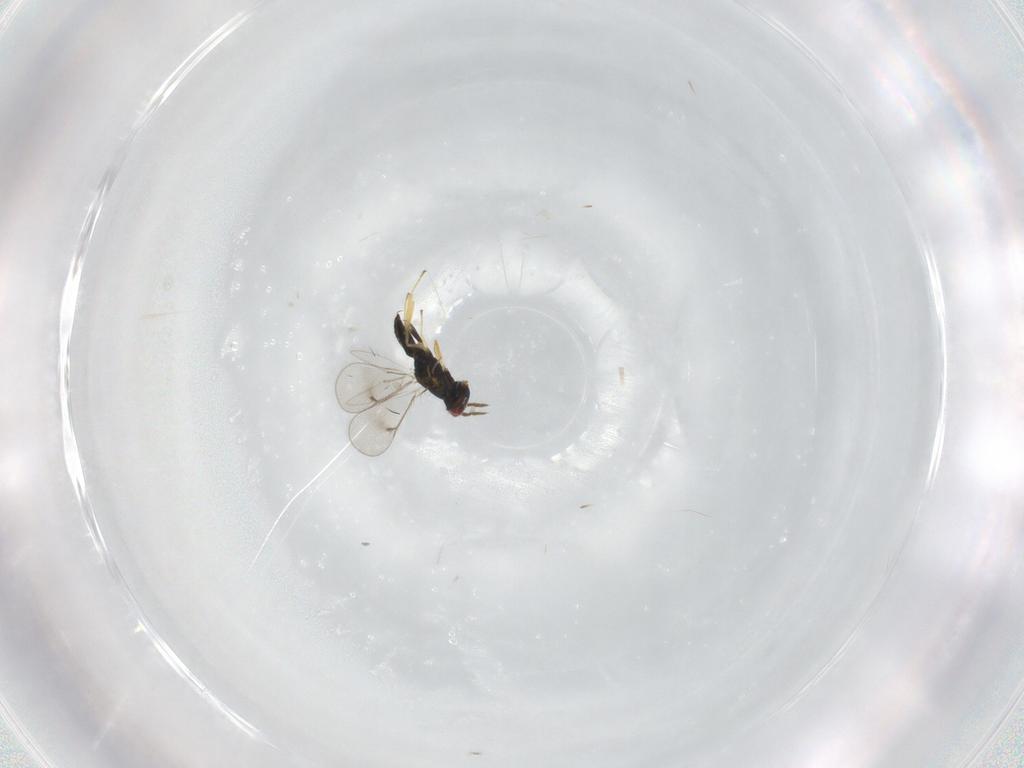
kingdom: Animalia
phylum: Arthropoda
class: Insecta
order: Hymenoptera
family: Eulophidae
